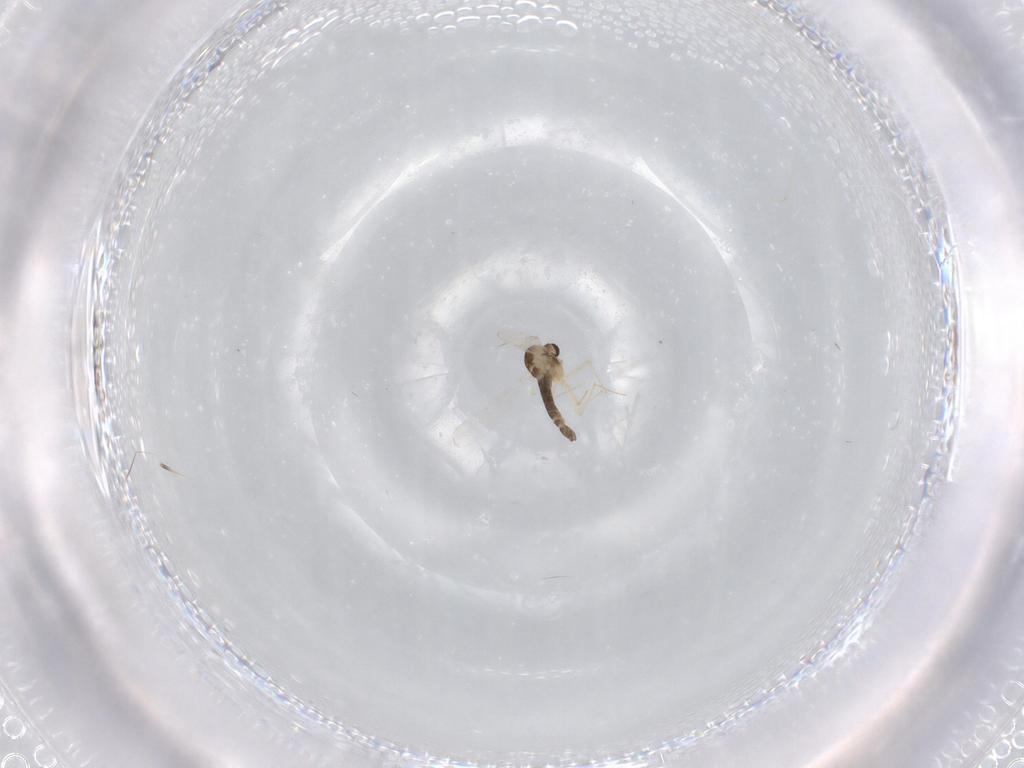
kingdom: Animalia
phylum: Arthropoda
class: Insecta
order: Diptera
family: Chironomidae
